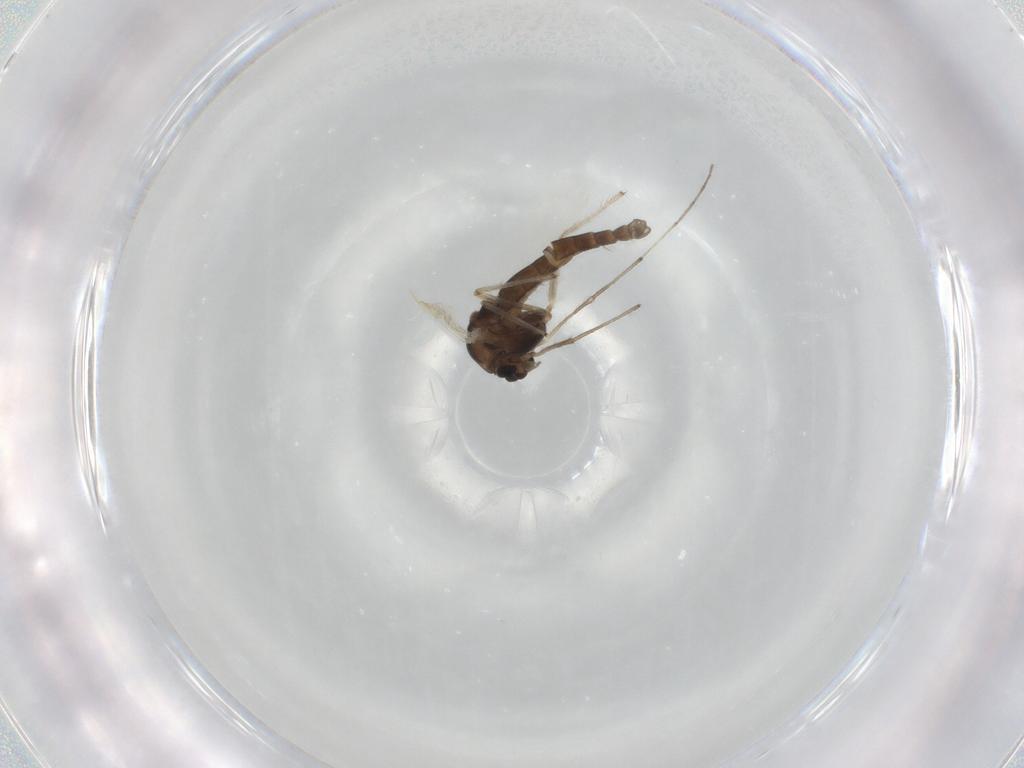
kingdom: Animalia
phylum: Arthropoda
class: Insecta
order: Diptera
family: Chironomidae
